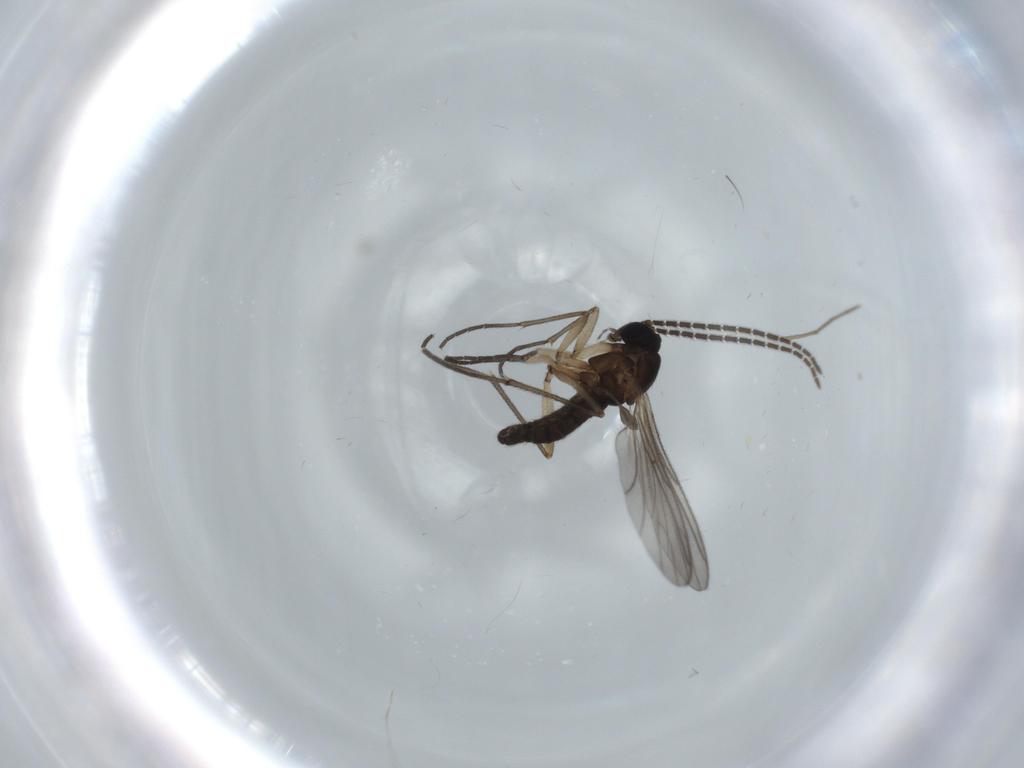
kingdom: Animalia
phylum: Arthropoda
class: Insecta
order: Diptera
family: Sciaridae
